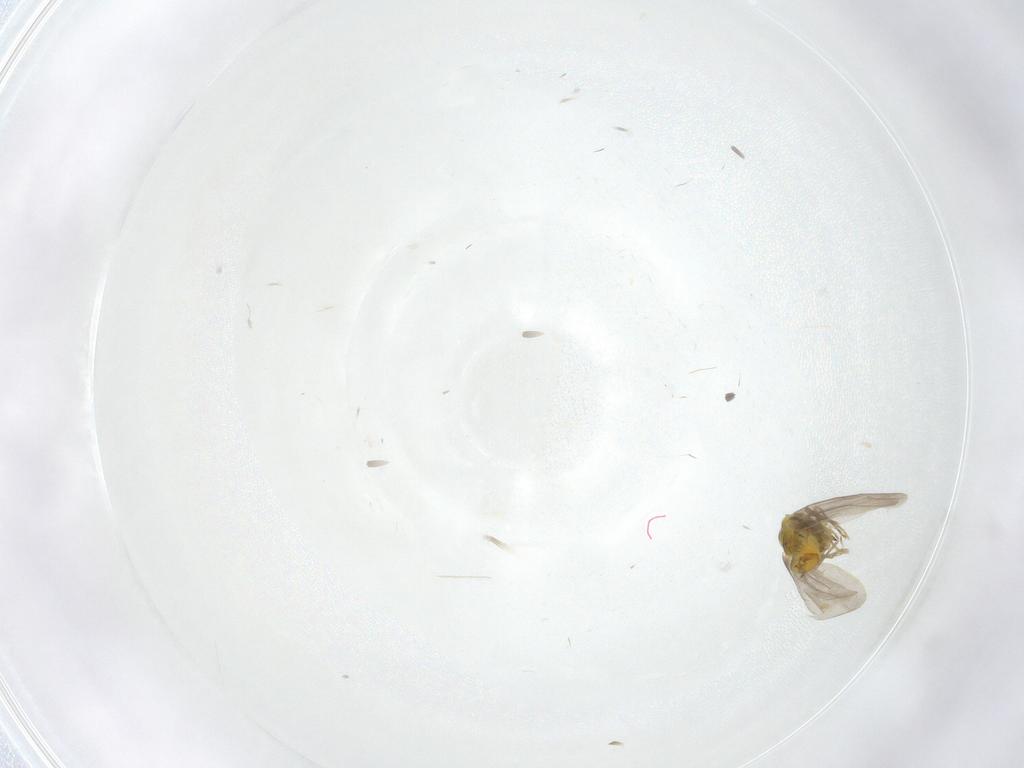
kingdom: Animalia
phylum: Arthropoda
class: Insecta
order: Hemiptera
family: Aleyrodidae
